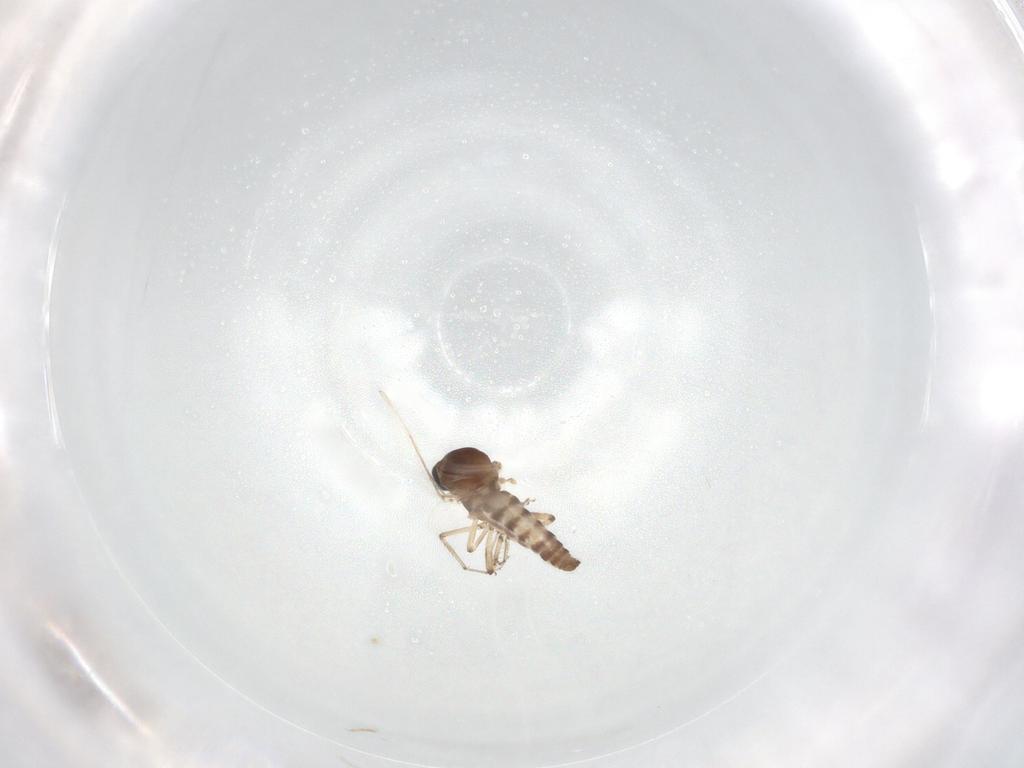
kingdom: Animalia
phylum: Arthropoda
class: Insecta
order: Diptera
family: Ceratopogonidae
